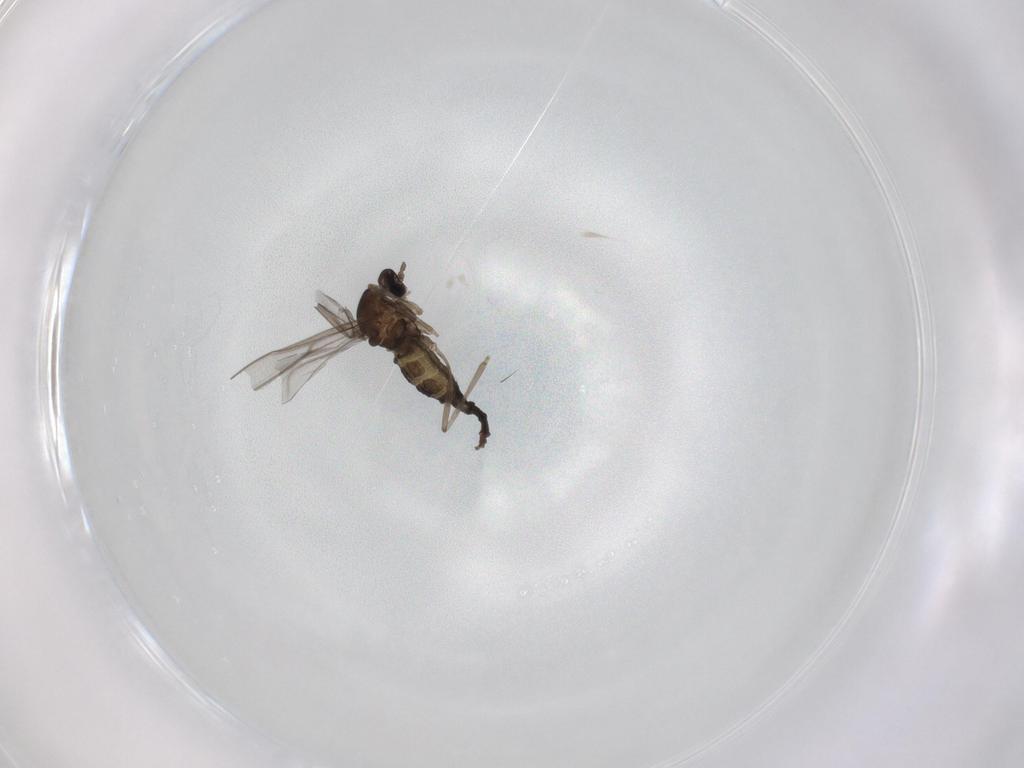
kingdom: Animalia
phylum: Arthropoda
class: Insecta
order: Diptera
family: Cecidomyiidae
